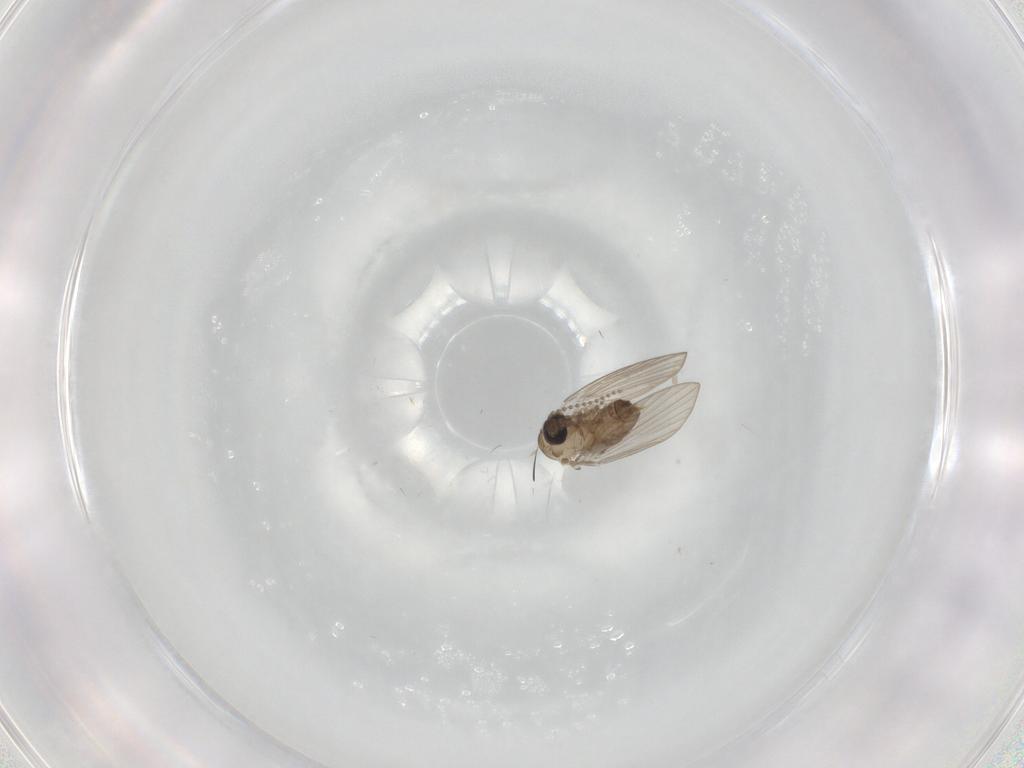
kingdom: Animalia
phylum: Arthropoda
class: Insecta
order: Diptera
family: Psychodidae
